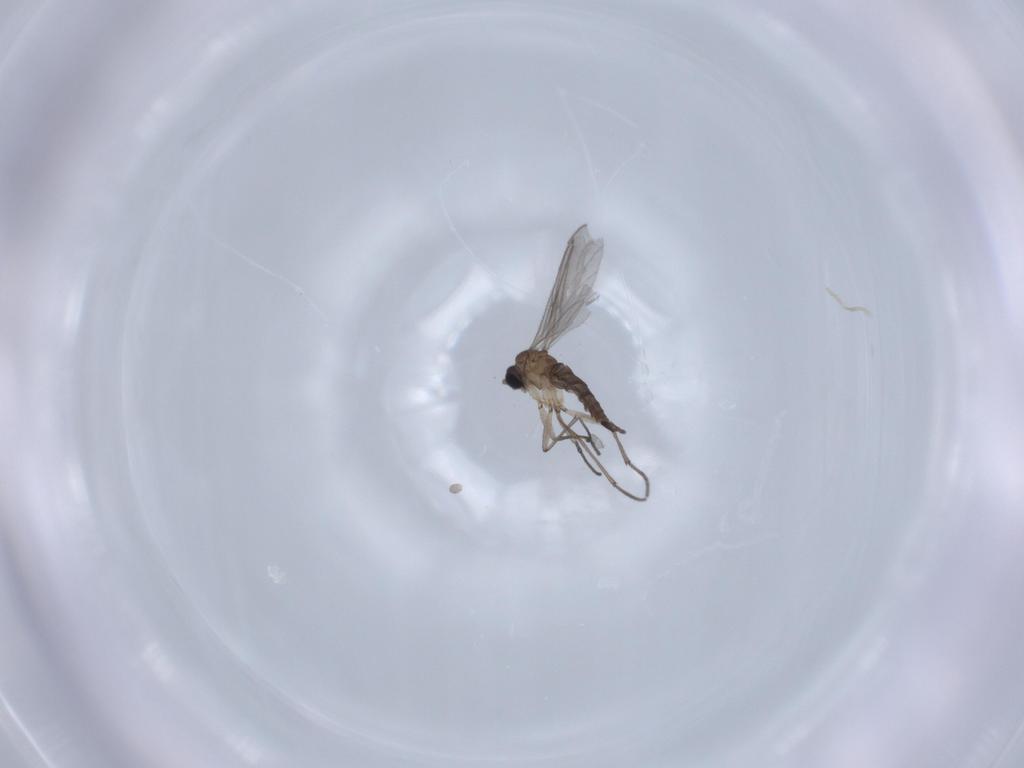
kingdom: Animalia
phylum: Arthropoda
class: Insecta
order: Diptera
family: Sciaridae
